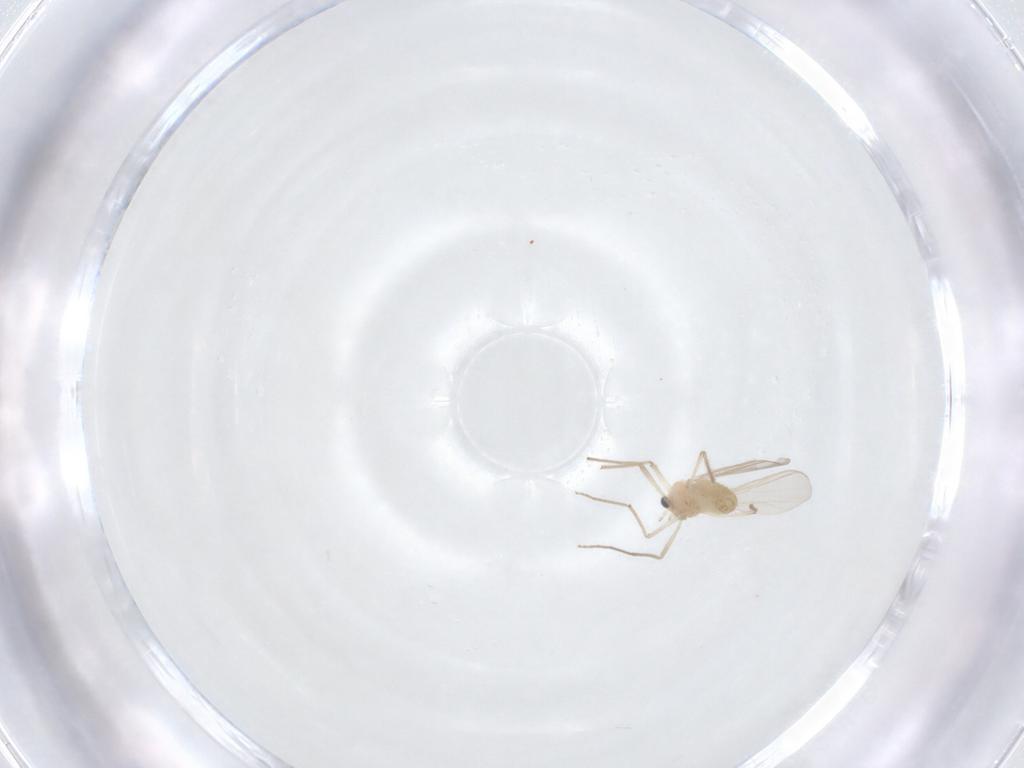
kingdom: Animalia
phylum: Arthropoda
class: Insecta
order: Diptera
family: Chironomidae
